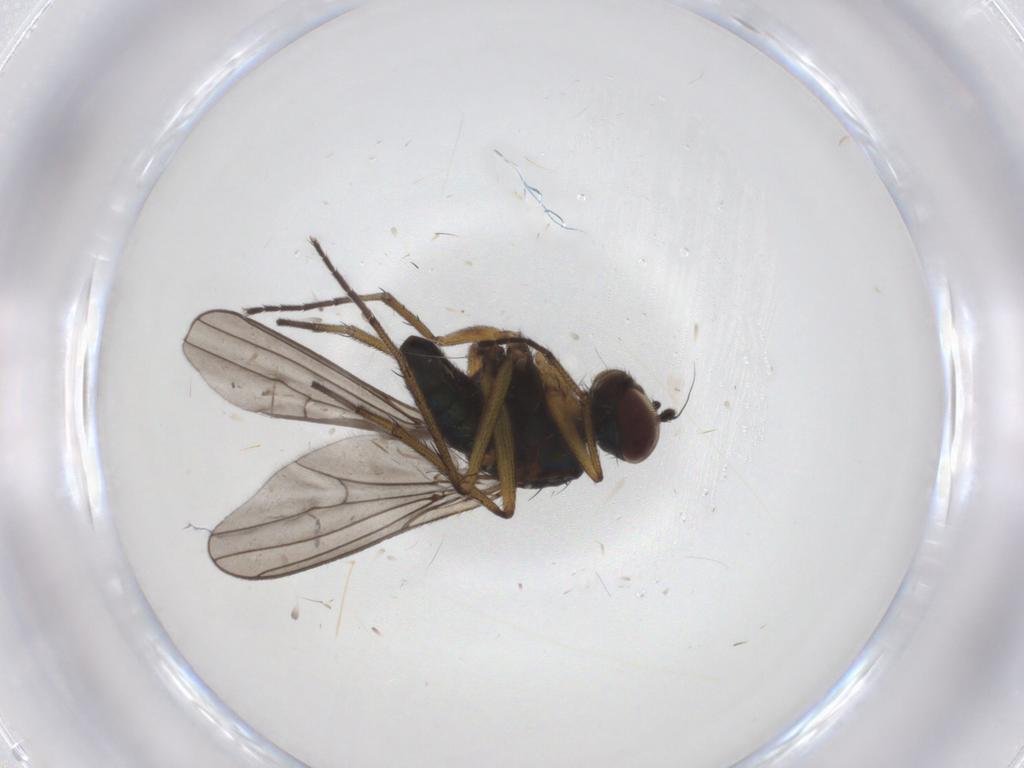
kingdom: Animalia
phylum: Arthropoda
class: Insecta
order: Diptera
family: Dolichopodidae
